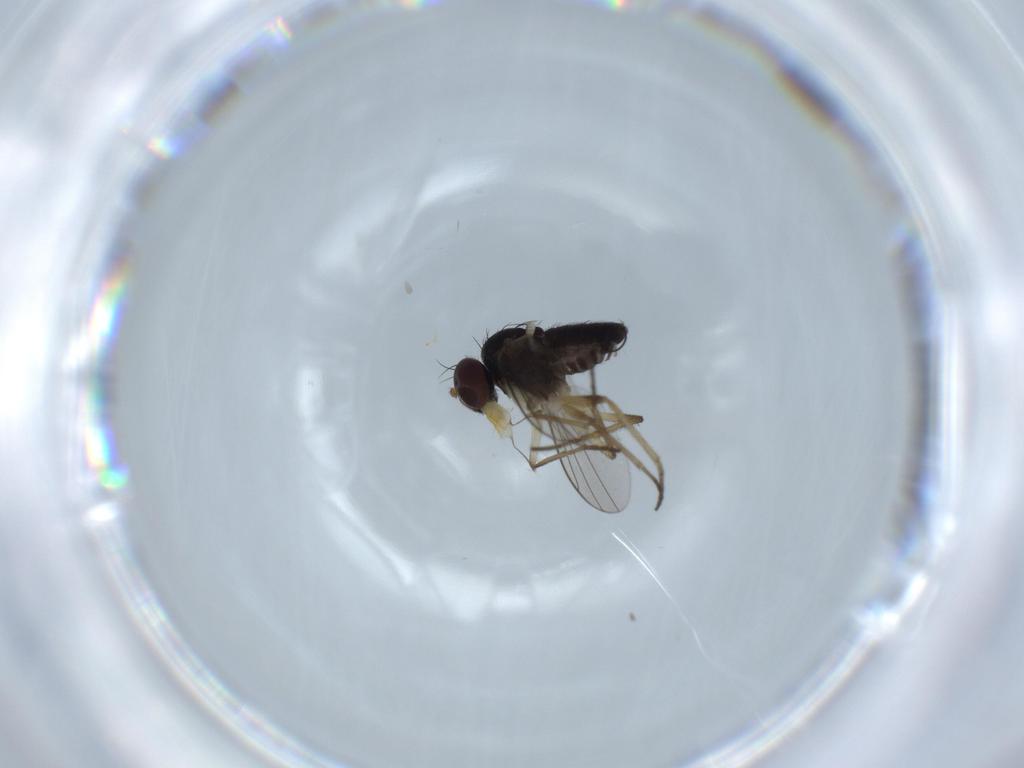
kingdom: Animalia
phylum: Arthropoda
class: Insecta
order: Diptera
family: Dolichopodidae
